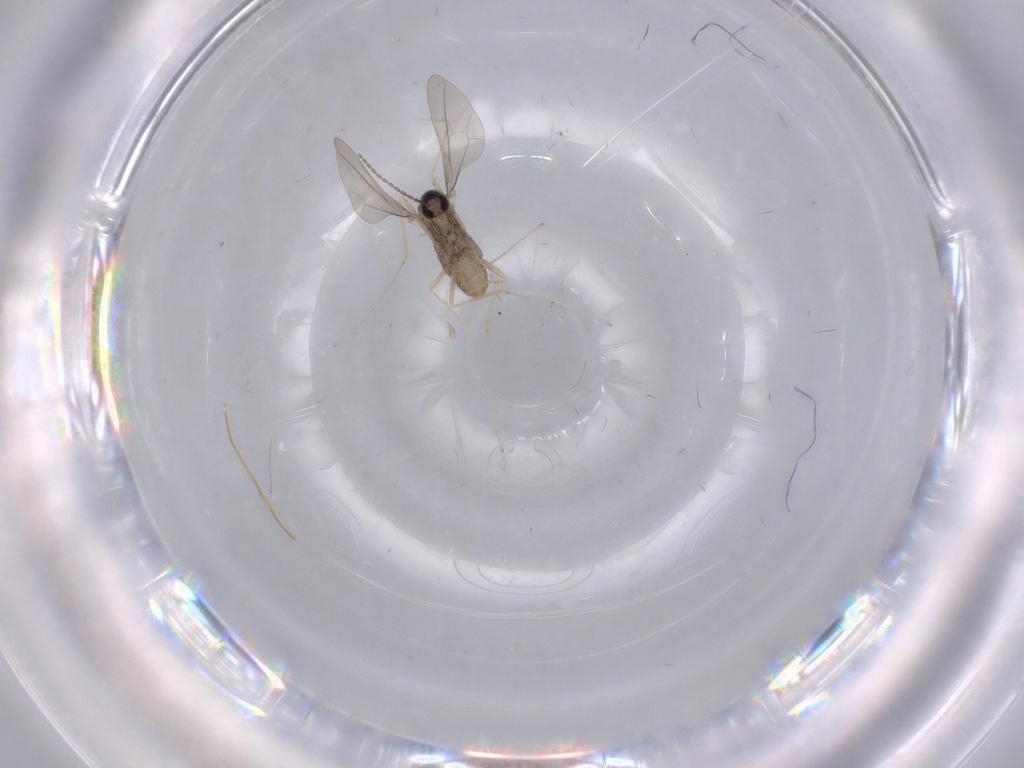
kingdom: Animalia
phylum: Arthropoda
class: Insecta
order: Diptera
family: Cecidomyiidae
